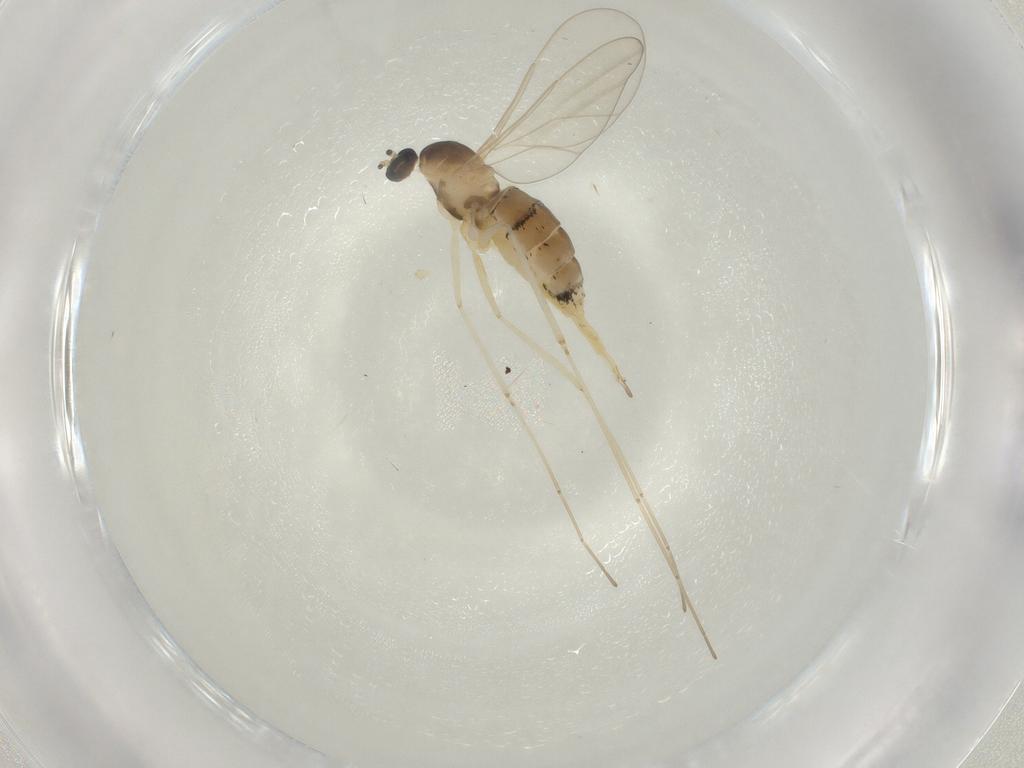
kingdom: Animalia
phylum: Arthropoda
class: Insecta
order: Diptera
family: Cecidomyiidae
